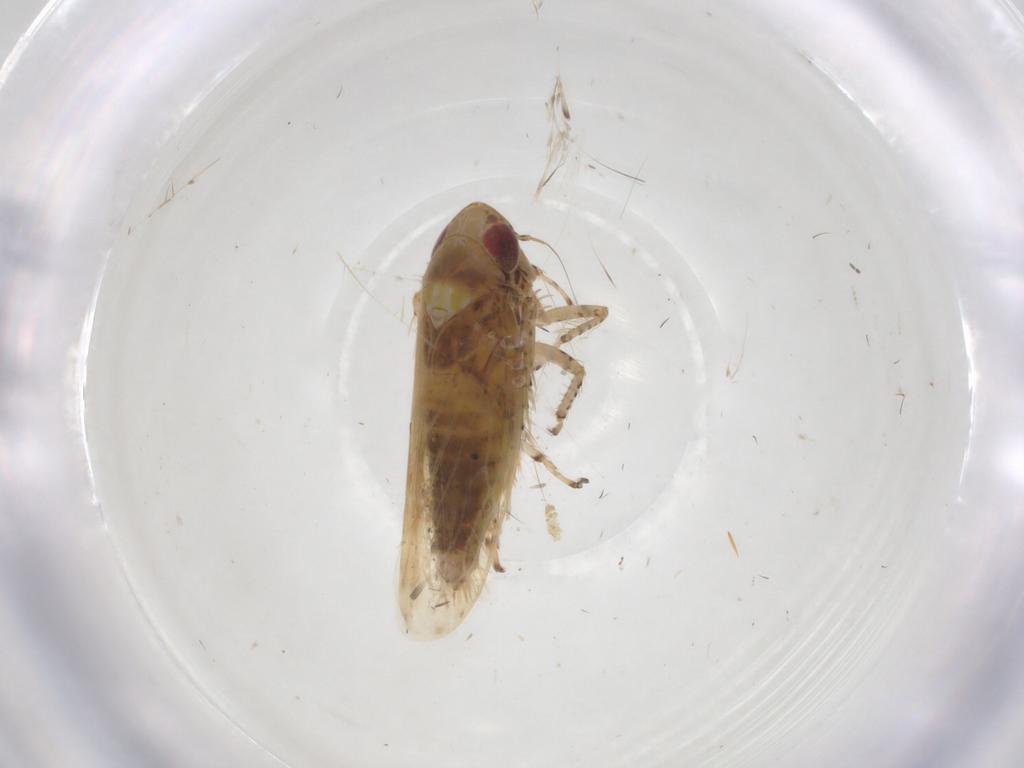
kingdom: Animalia
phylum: Arthropoda
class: Insecta
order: Hemiptera
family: Cicadellidae
